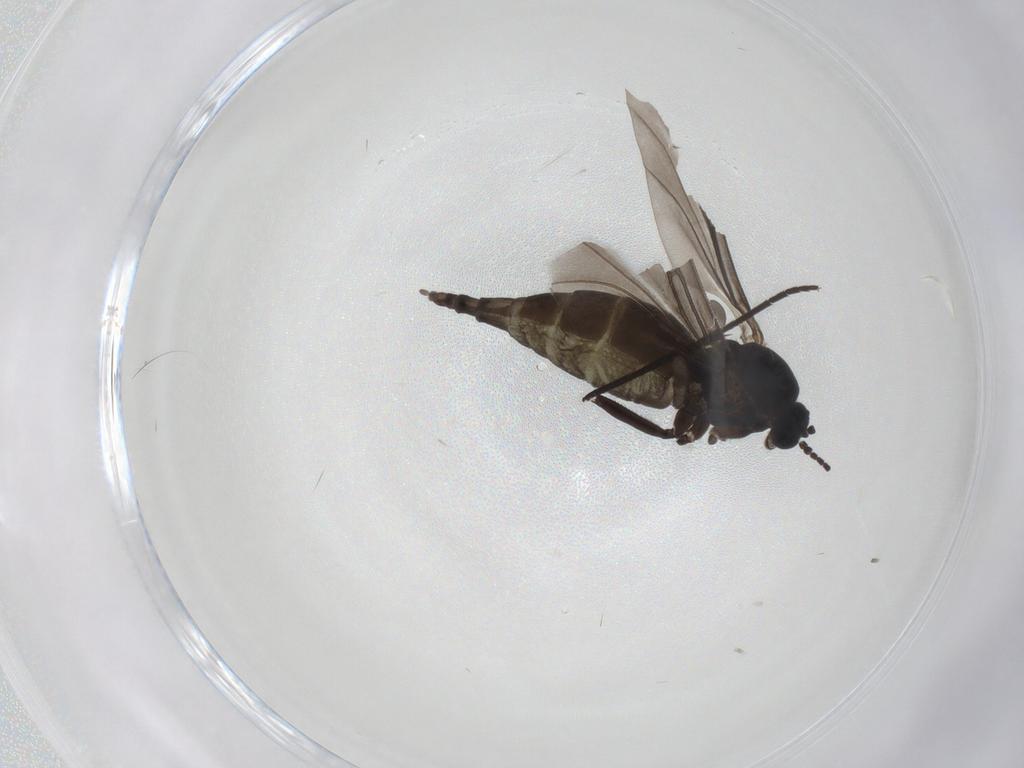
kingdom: Animalia
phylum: Arthropoda
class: Insecta
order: Diptera
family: Sciaridae
